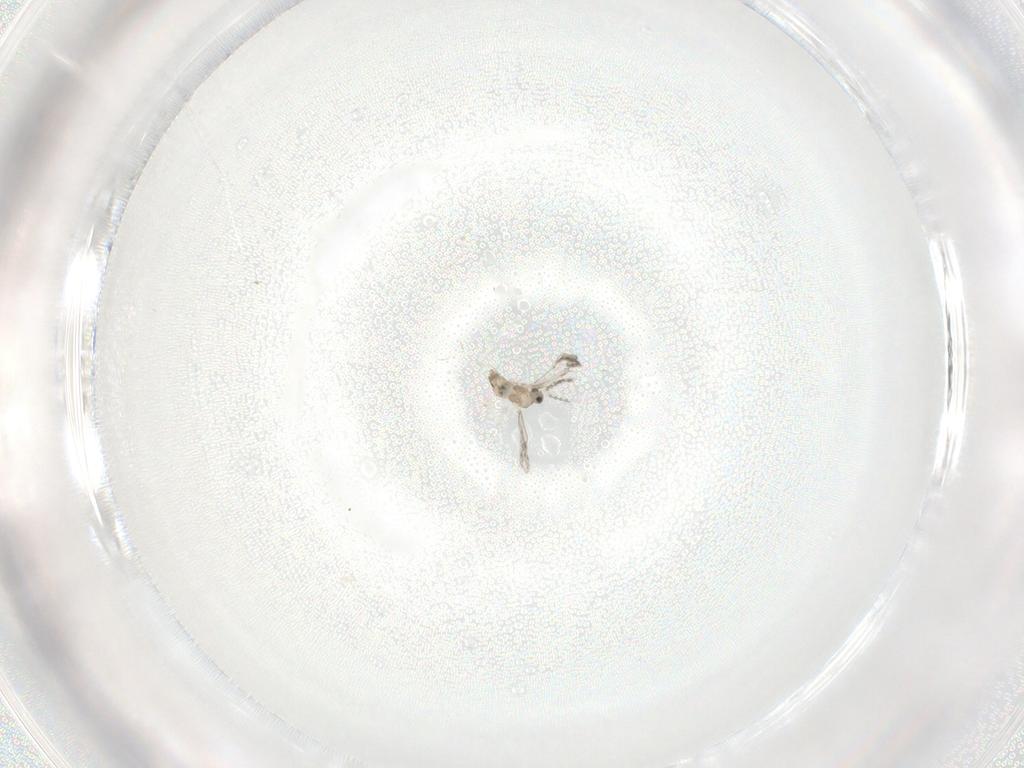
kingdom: Animalia
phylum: Arthropoda
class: Insecta
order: Diptera
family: Cecidomyiidae
